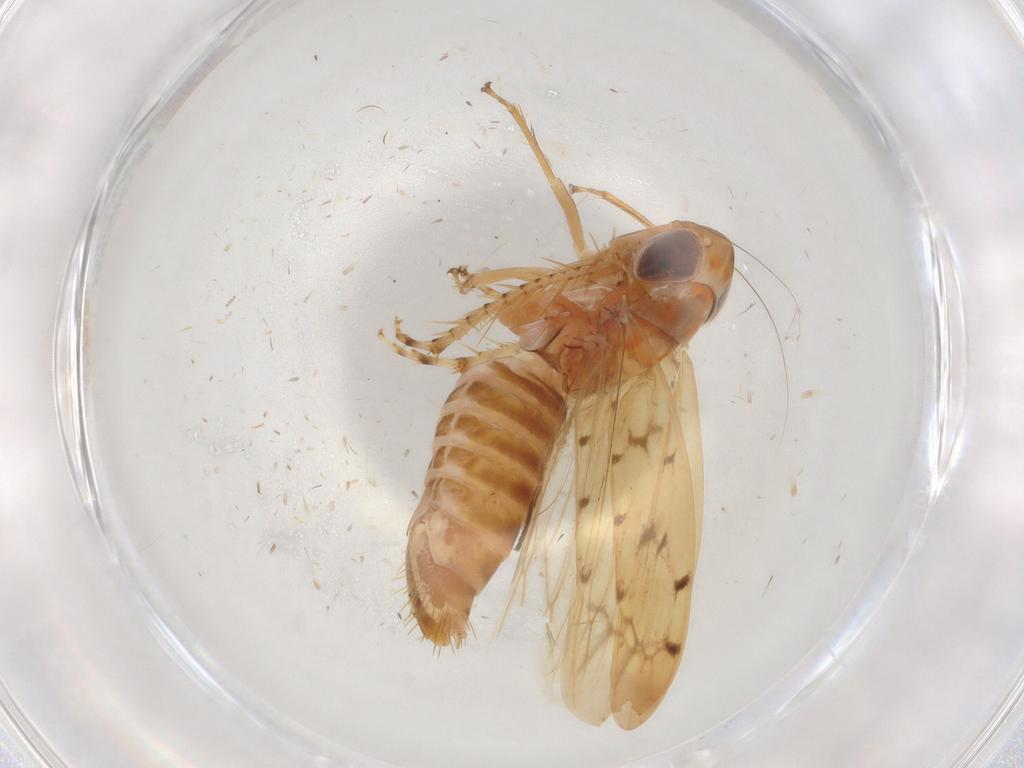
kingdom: Animalia
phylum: Arthropoda
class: Insecta
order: Hemiptera
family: Cicadellidae
